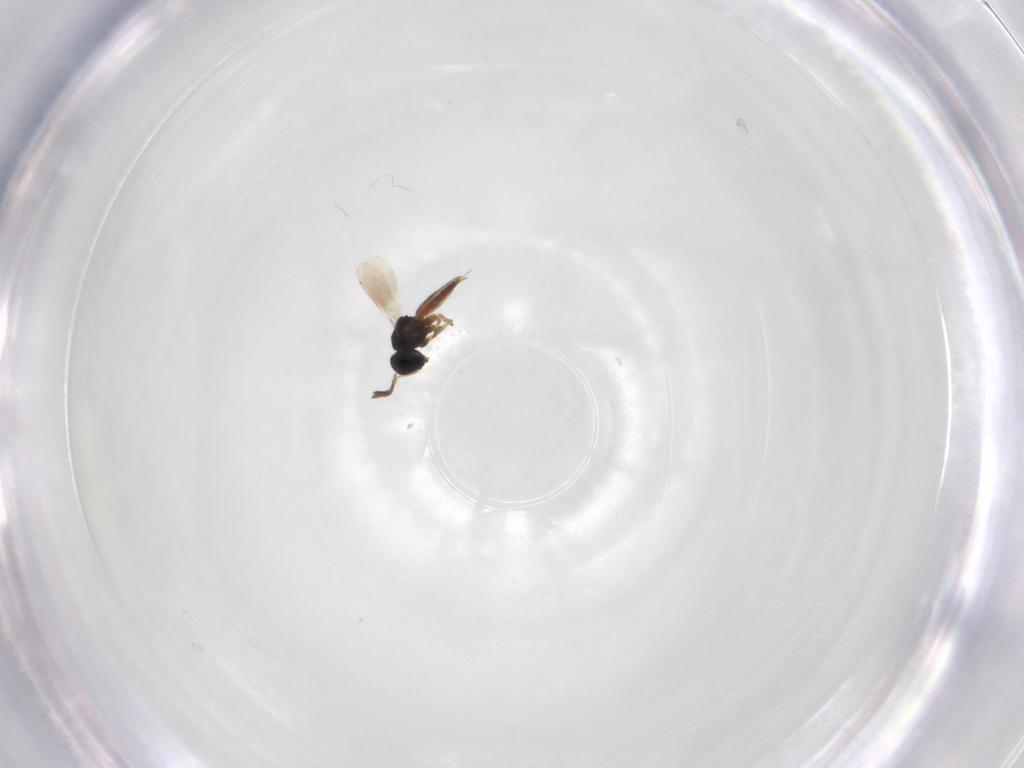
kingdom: Animalia
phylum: Arthropoda
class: Insecta
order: Hymenoptera
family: Scelionidae
